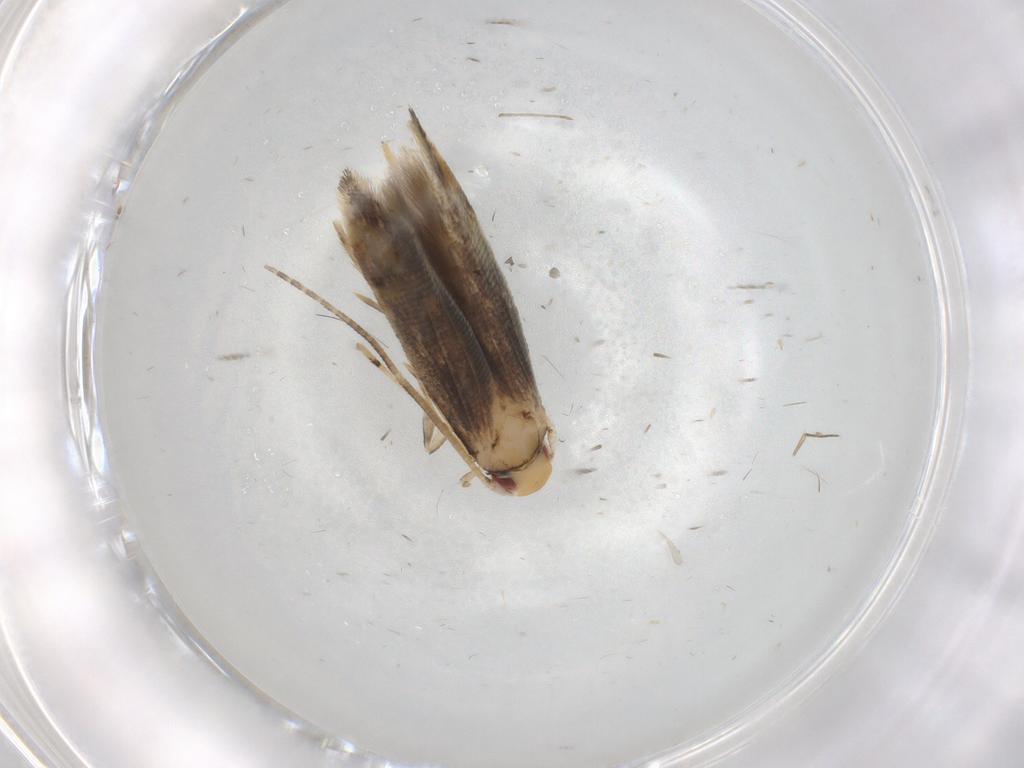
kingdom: Animalia
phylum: Arthropoda
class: Insecta
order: Lepidoptera
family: Momphidae
